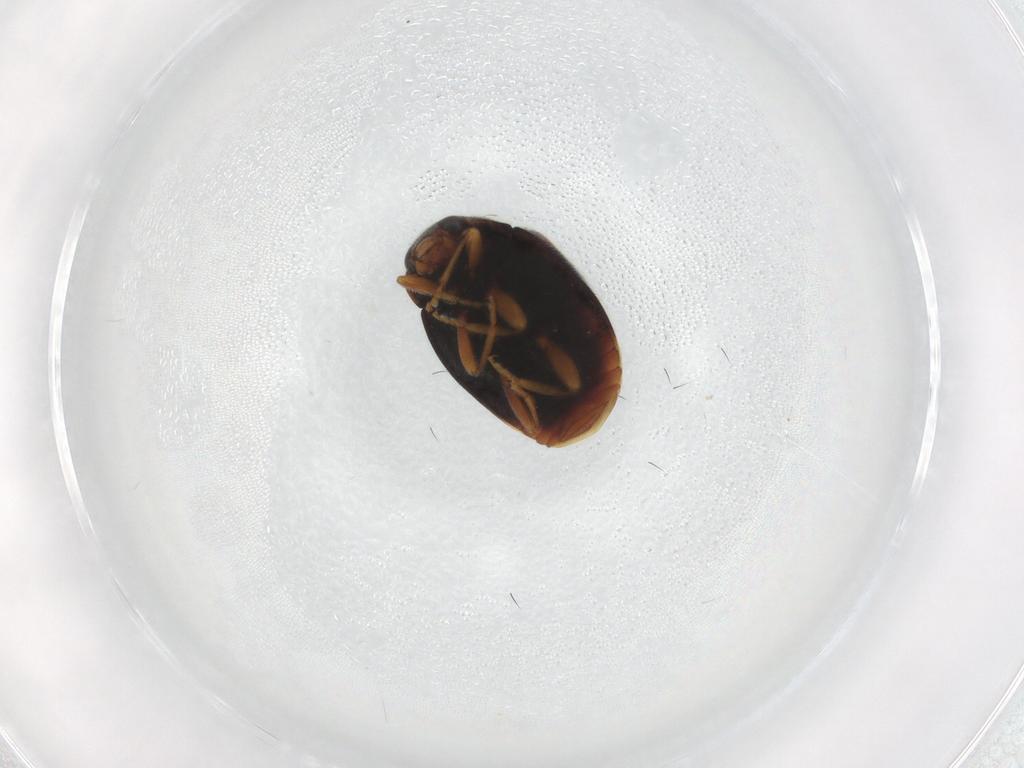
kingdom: Animalia
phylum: Arthropoda
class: Insecta
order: Coleoptera
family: Coccinellidae
